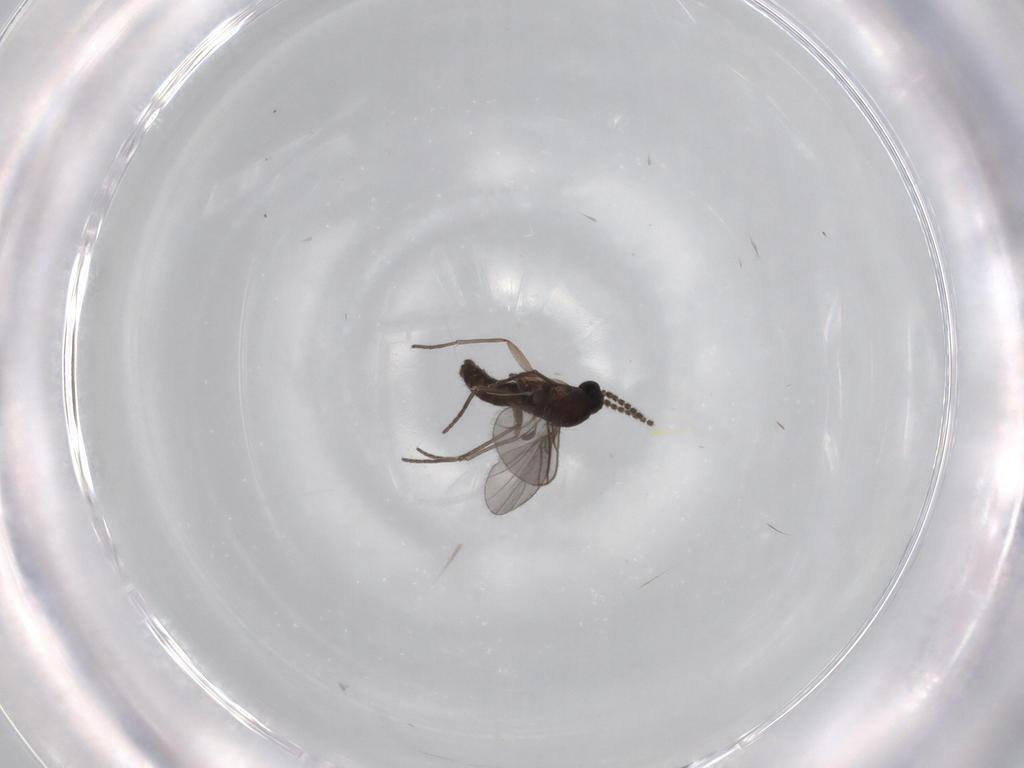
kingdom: Animalia
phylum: Arthropoda
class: Insecta
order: Diptera
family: Sciaridae
